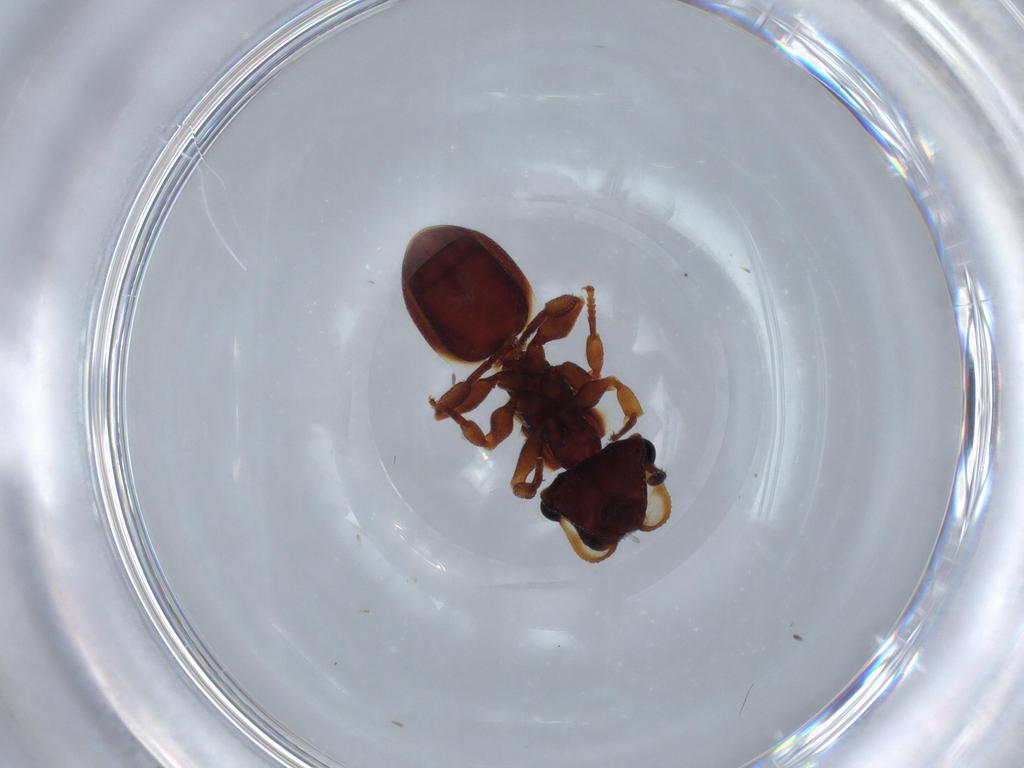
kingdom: Animalia
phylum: Arthropoda
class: Insecta
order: Hymenoptera
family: Formicidae
